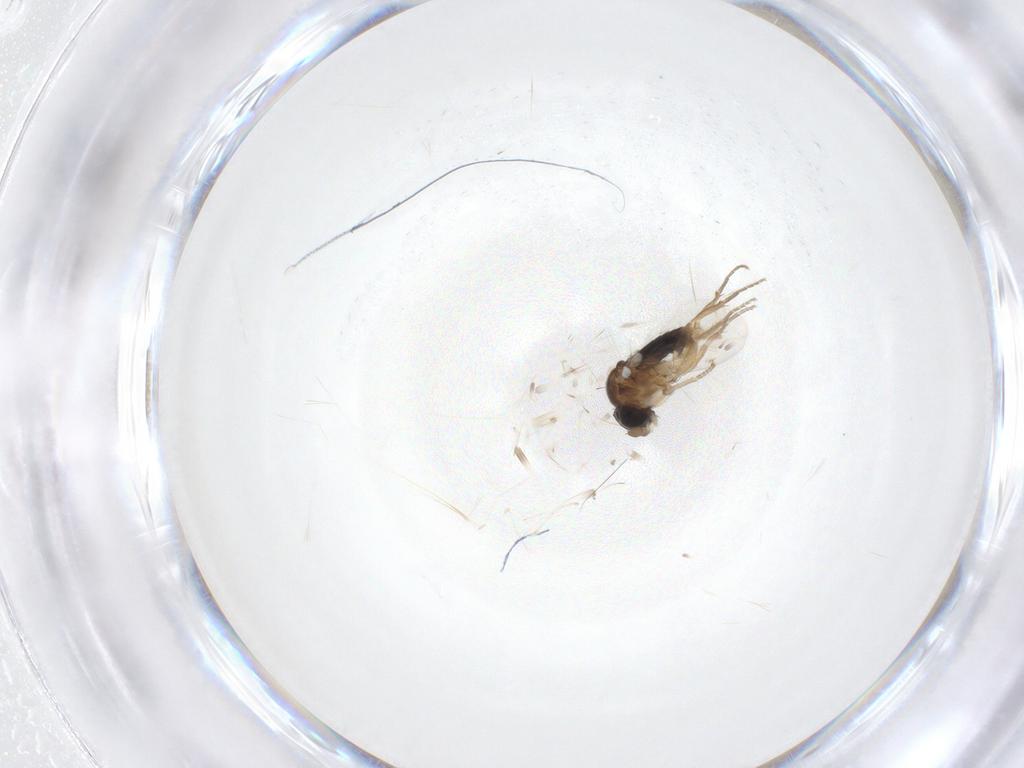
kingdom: Animalia
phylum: Arthropoda
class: Insecta
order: Diptera
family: Cecidomyiidae
